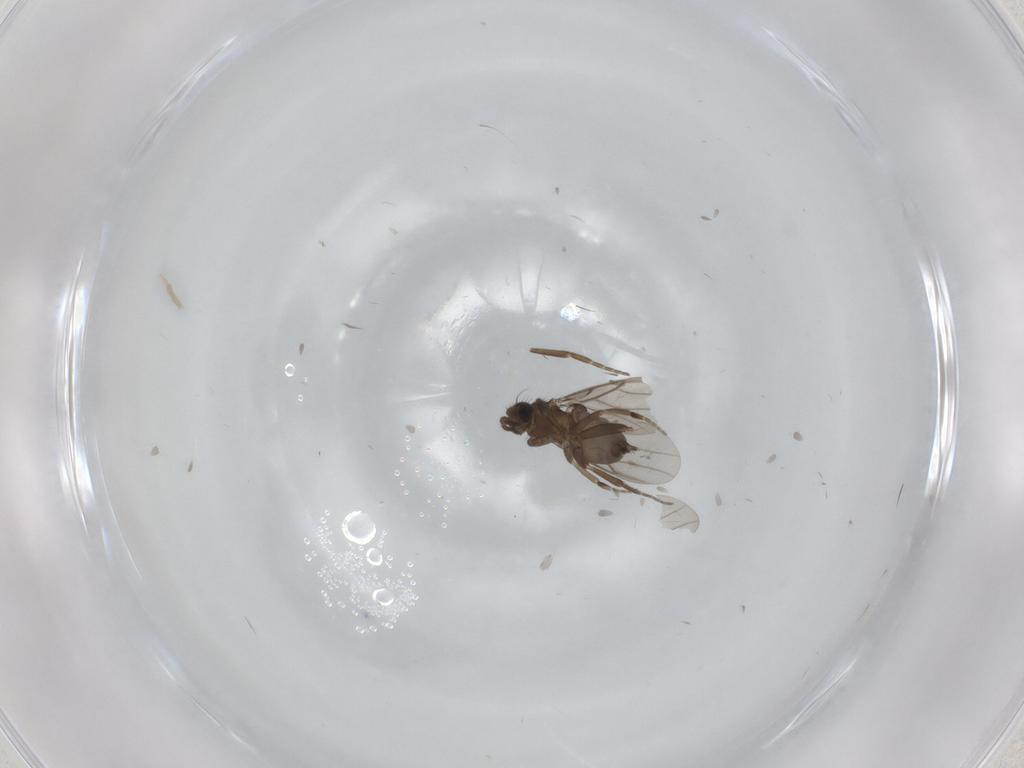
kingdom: Animalia
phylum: Arthropoda
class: Insecta
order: Diptera
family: Phoridae
